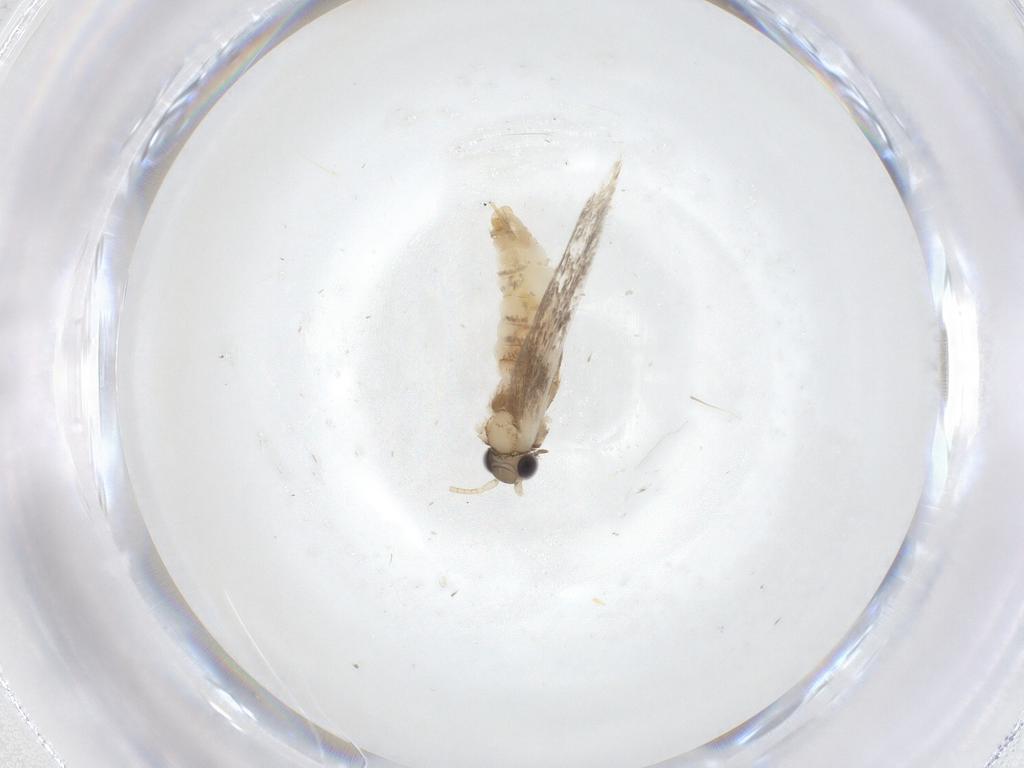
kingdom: Animalia
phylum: Arthropoda
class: Insecta
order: Lepidoptera
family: Dryadaulidae
